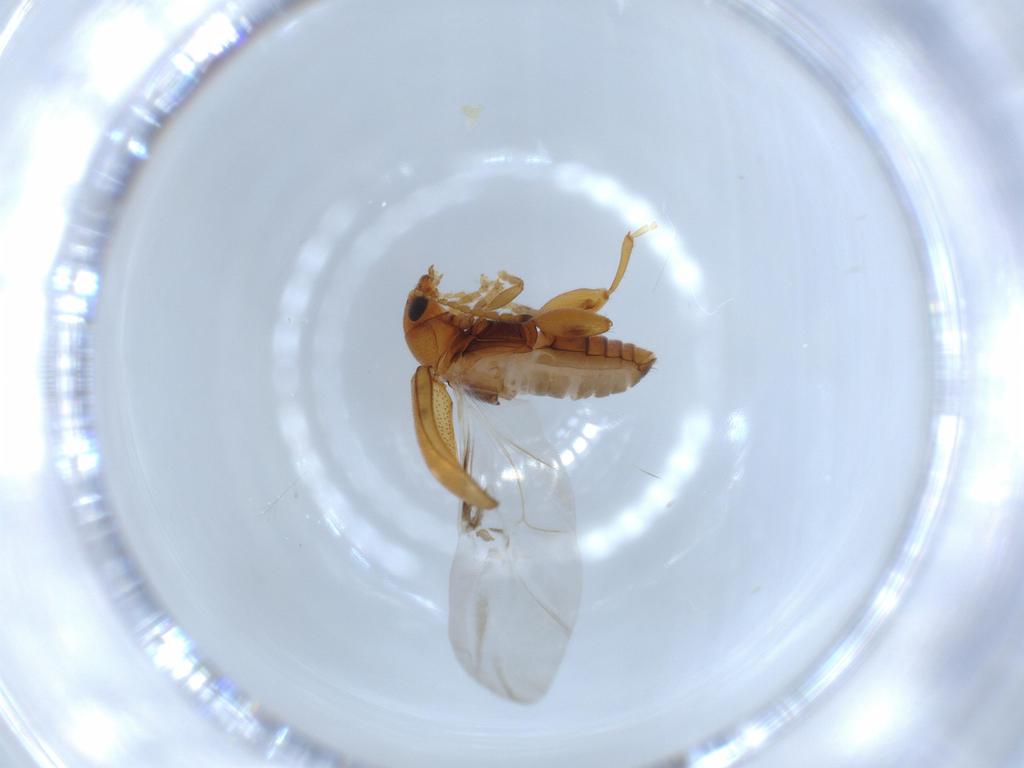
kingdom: Animalia
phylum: Arthropoda
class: Insecta
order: Coleoptera
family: Chrysomelidae
